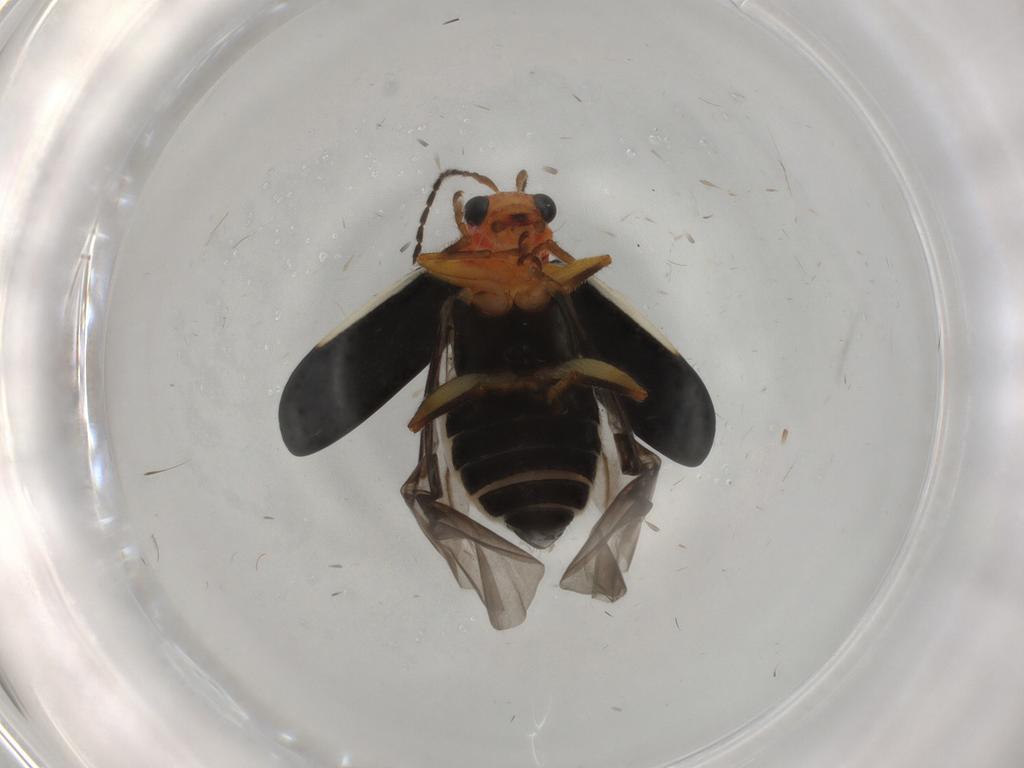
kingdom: Animalia
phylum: Arthropoda
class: Insecta
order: Coleoptera
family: Chrysomelidae
